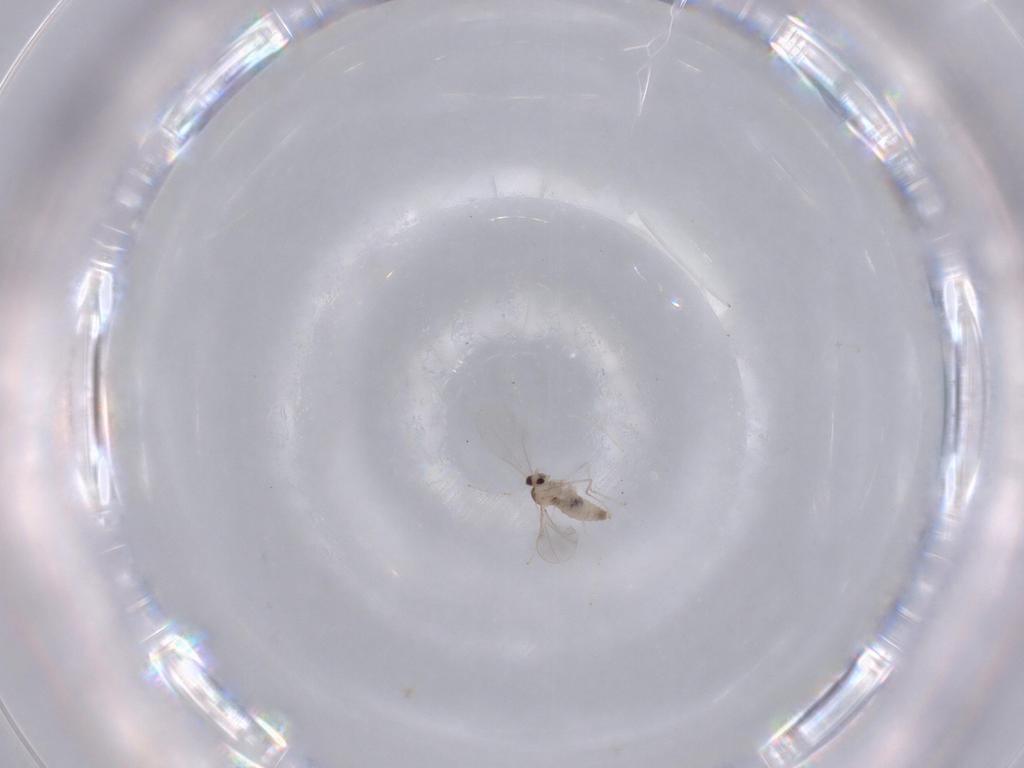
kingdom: Animalia
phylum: Arthropoda
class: Insecta
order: Diptera
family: Cecidomyiidae
